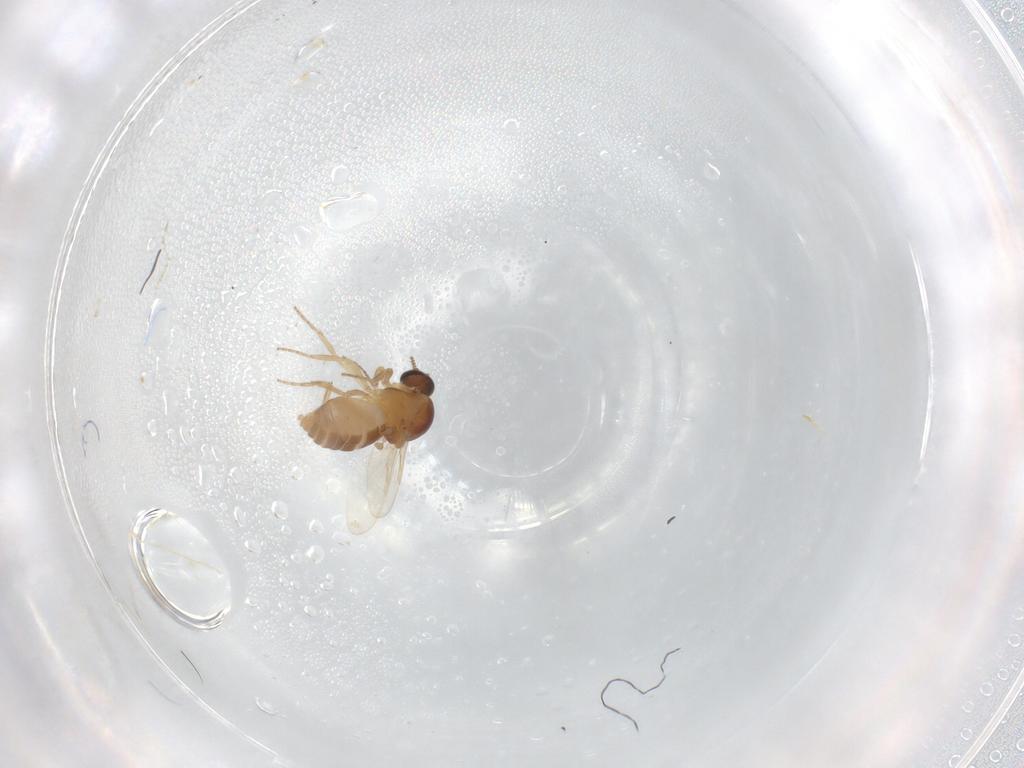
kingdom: Animalia
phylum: Arthropoda
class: Insecta
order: Diptera
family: Ceratopogonidae
